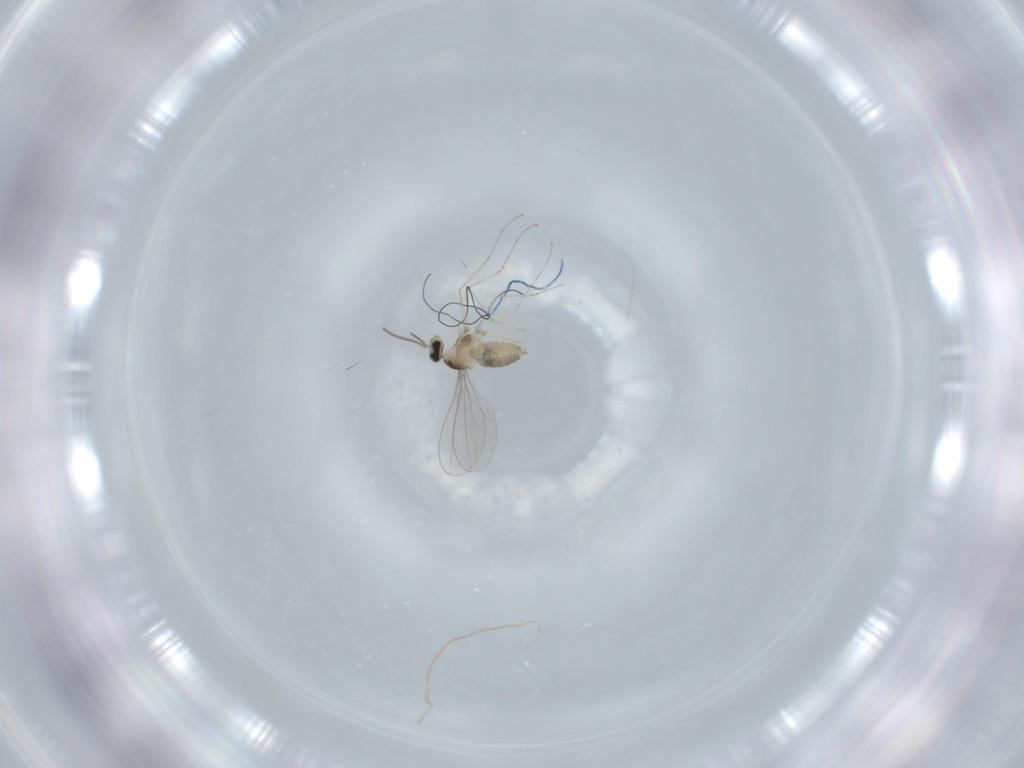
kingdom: Animalia
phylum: Arthropoda
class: Insecta
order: Diptera
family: Cecidomyiidae
